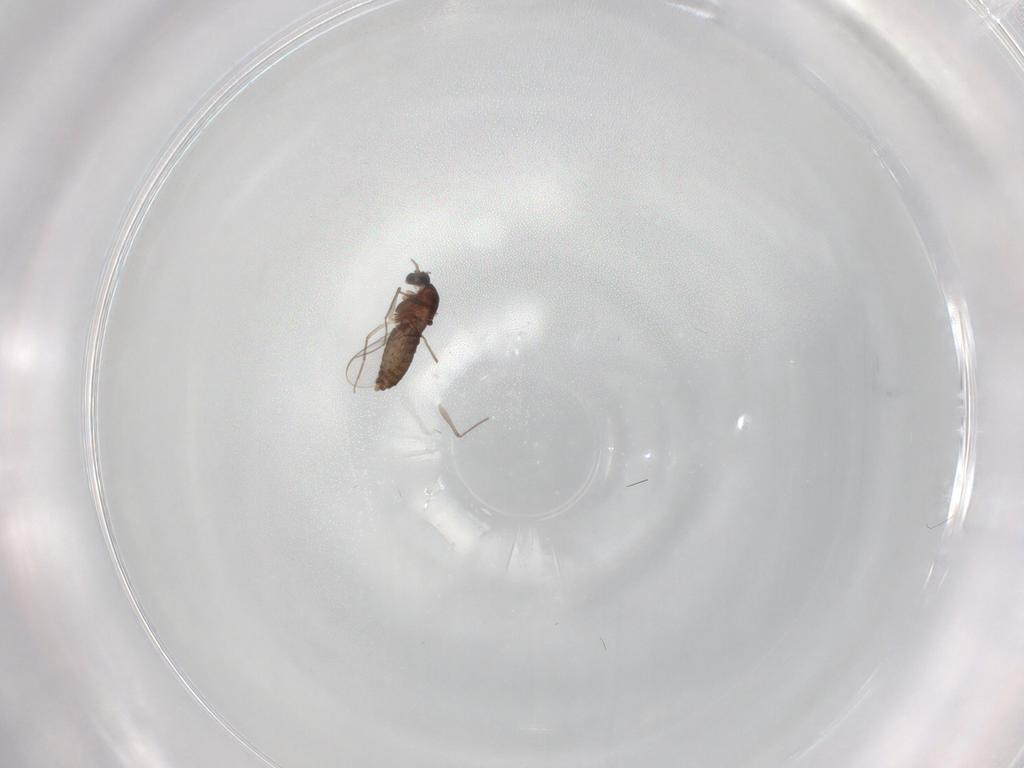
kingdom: Animalia
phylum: Arthropoda
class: Insecta
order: Diptera
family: Chironomidae
